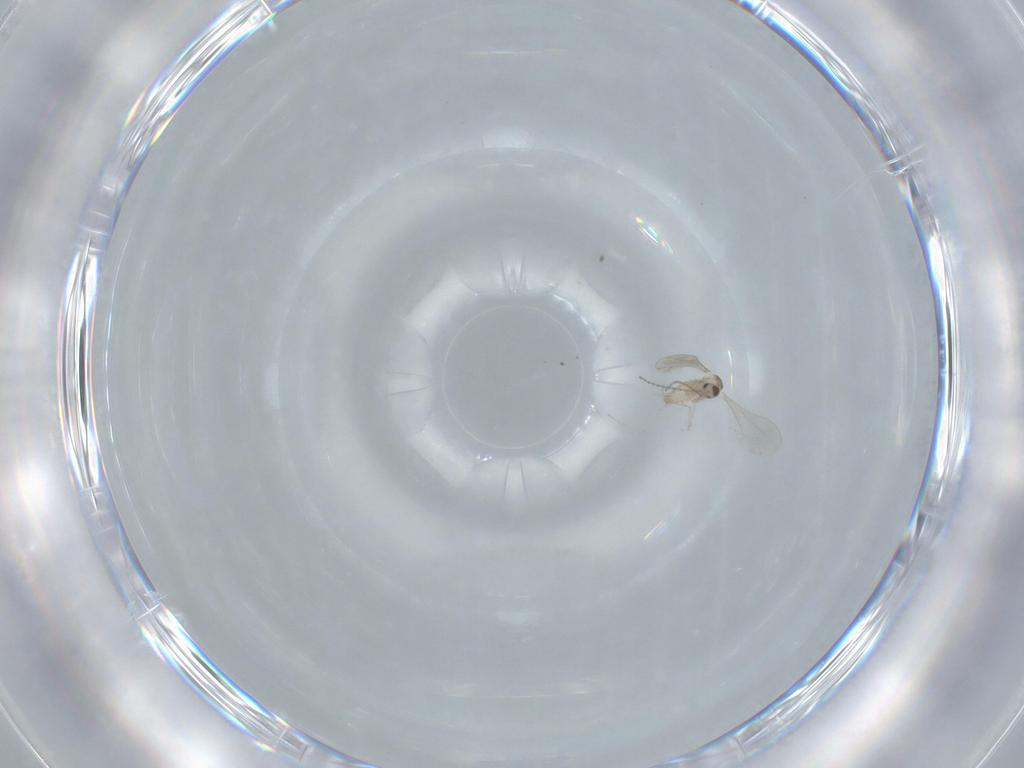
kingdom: Animalia
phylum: Arthropoda
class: Insecta
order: Diptera
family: Cecidomyiidae
